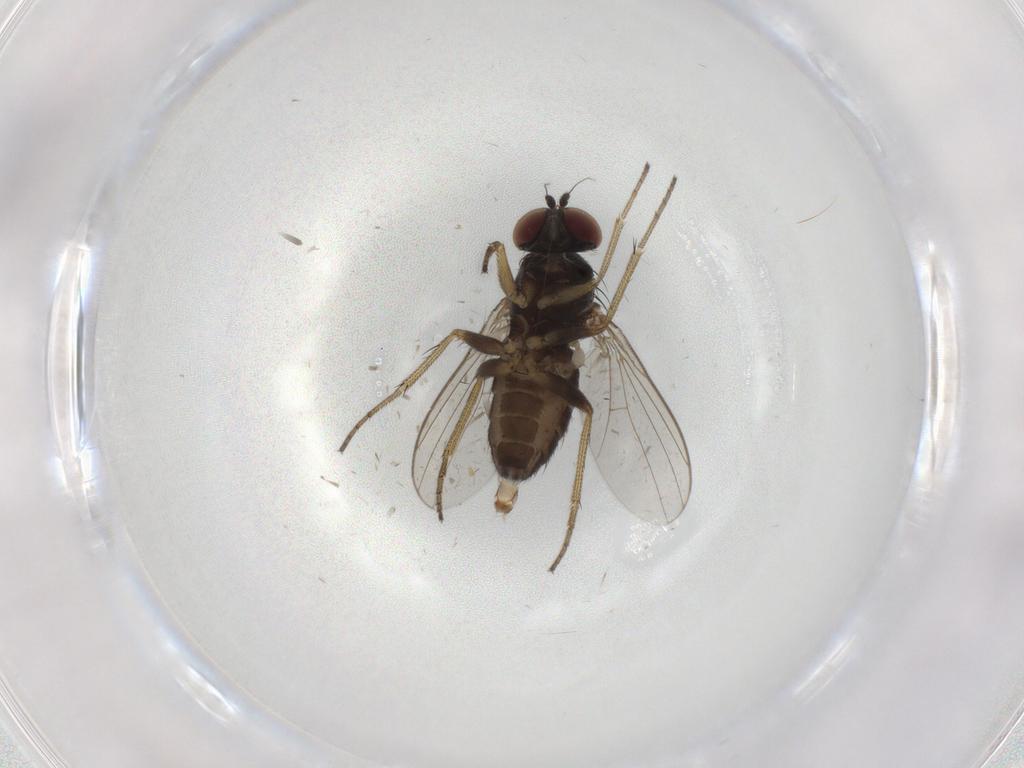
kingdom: Animalia
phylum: Arthropoda
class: Insecta
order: Diptera
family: Dolichopodidae
